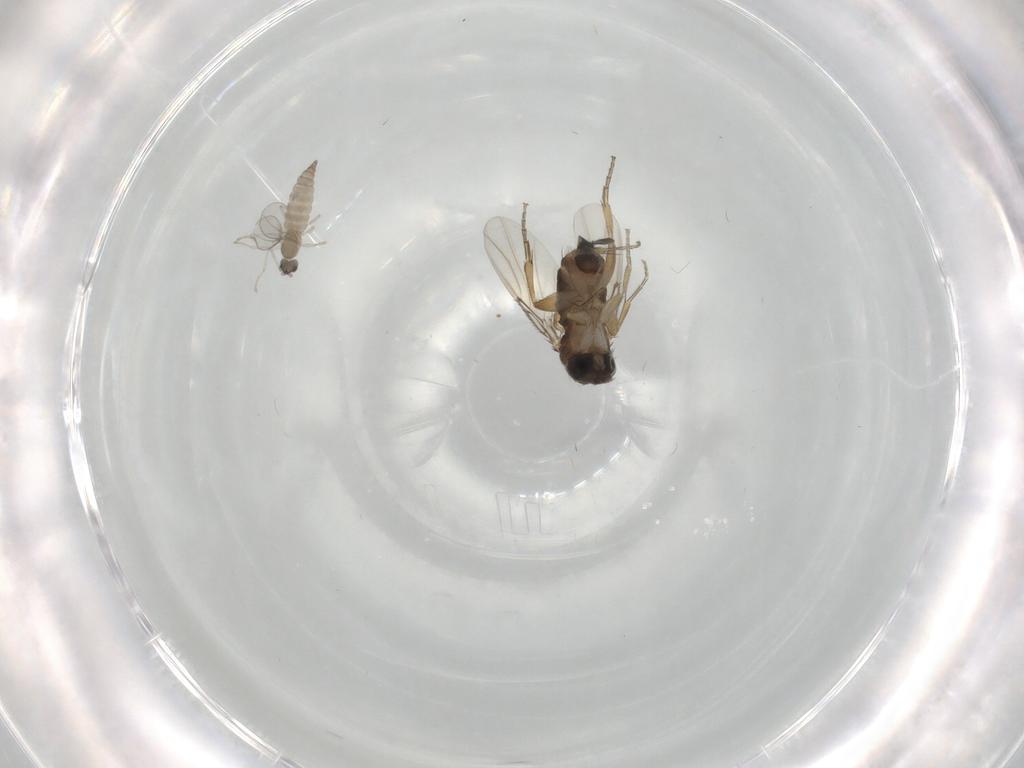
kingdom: Animalia
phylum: Arthropoda
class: Insecta
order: Diptera
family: Phoridae
